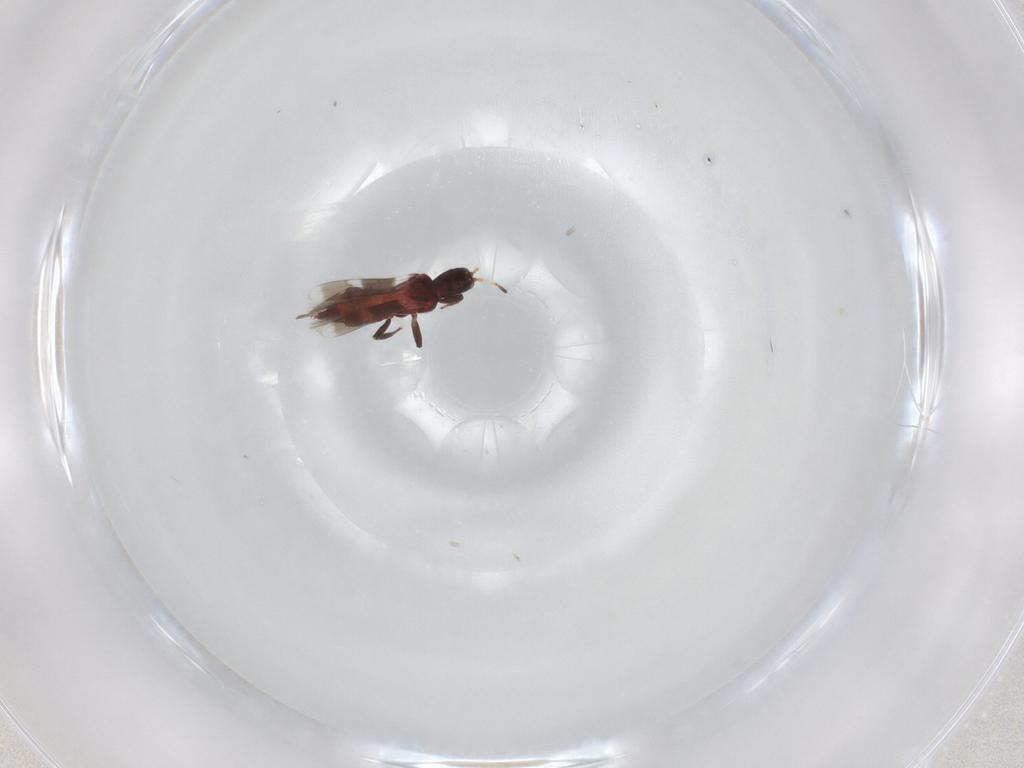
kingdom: Animalia
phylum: Arthropoda
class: Insecta
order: Thysanoptera
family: Aeolothripidae
